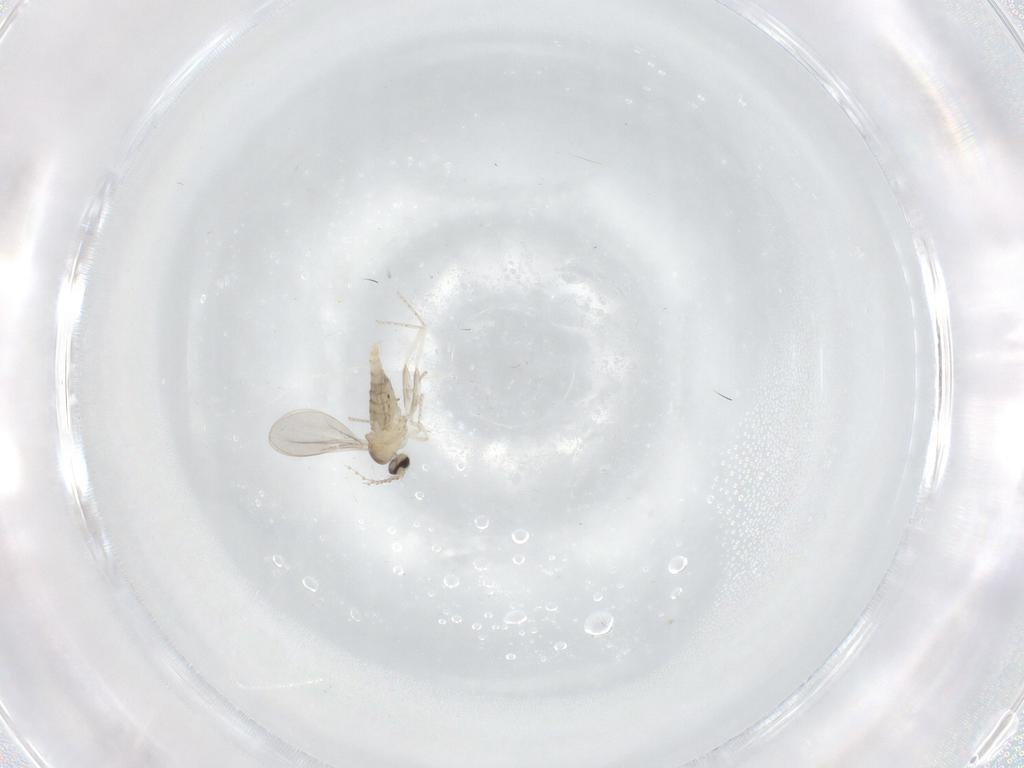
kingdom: Animalia
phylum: Arthropoda
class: Insecta
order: Diptera
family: Cecidomyiidae
